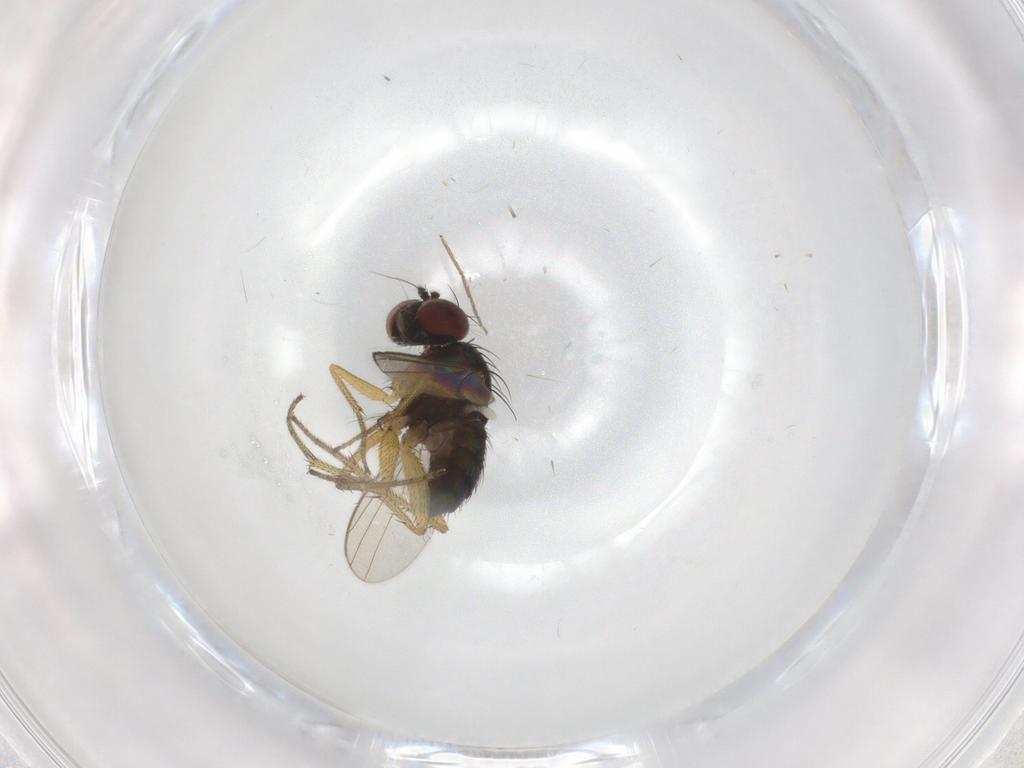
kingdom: Animalia
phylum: Arthropoda
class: Insecta
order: Diptera
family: Chironomidae
